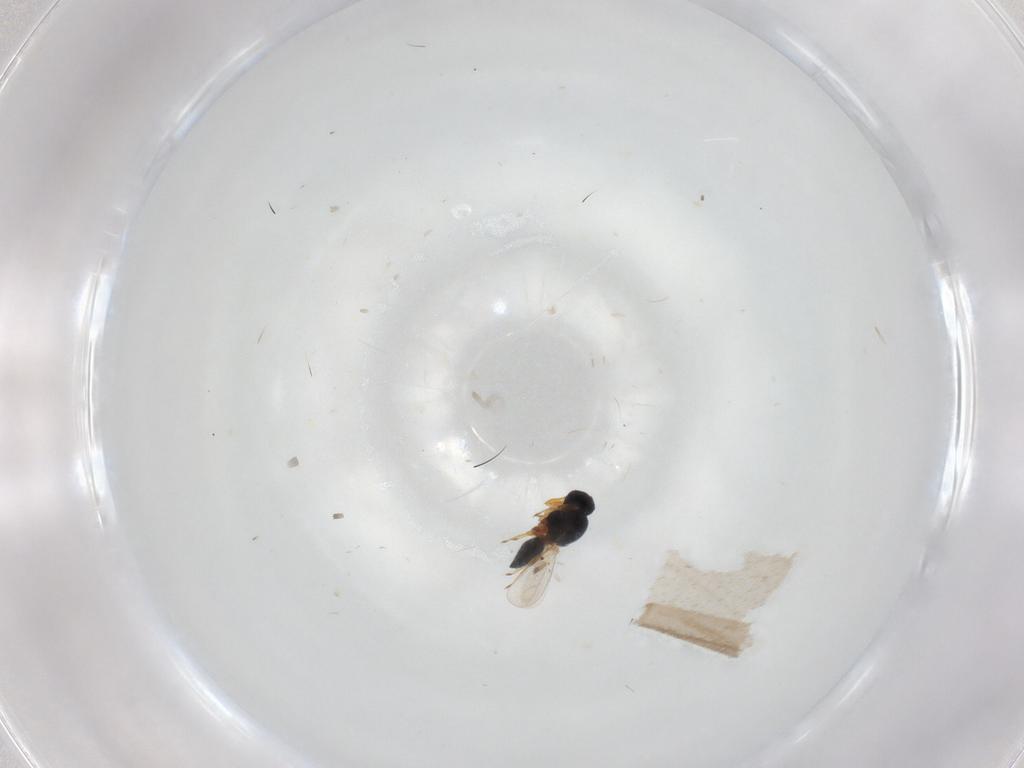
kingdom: Animalia
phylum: Arthropoda
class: Insecta
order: Hymenoptera
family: Platygastridae
